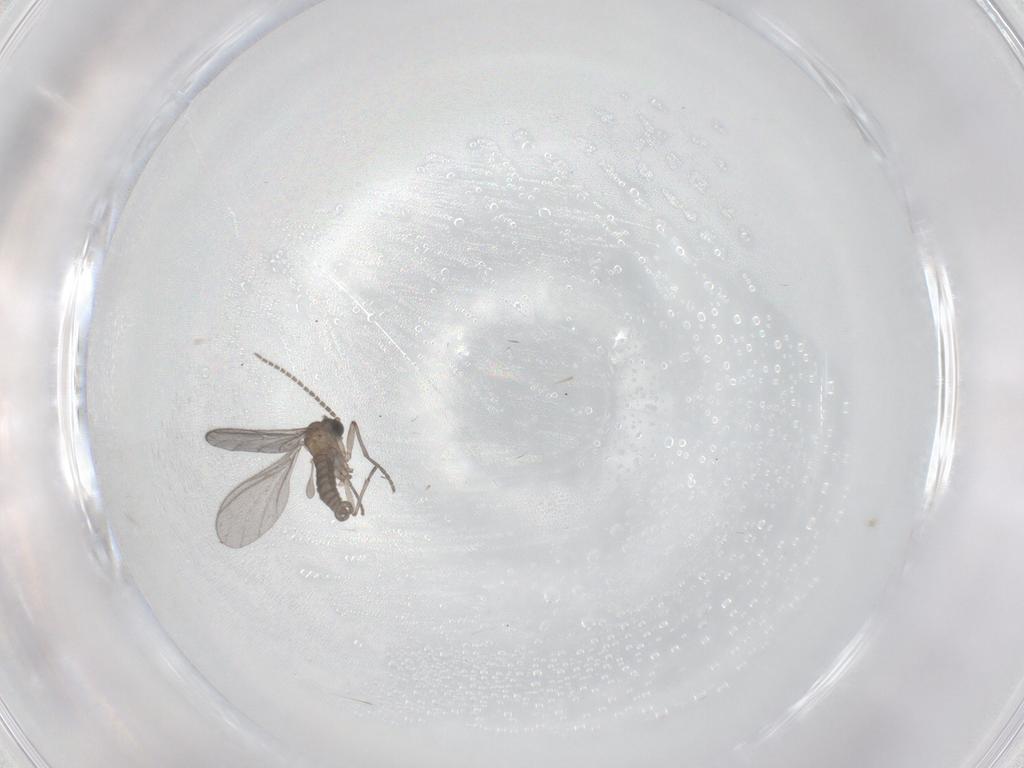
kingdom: Animalia
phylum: Arthropoda
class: Insecta
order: Diptera
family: Sciaridae
